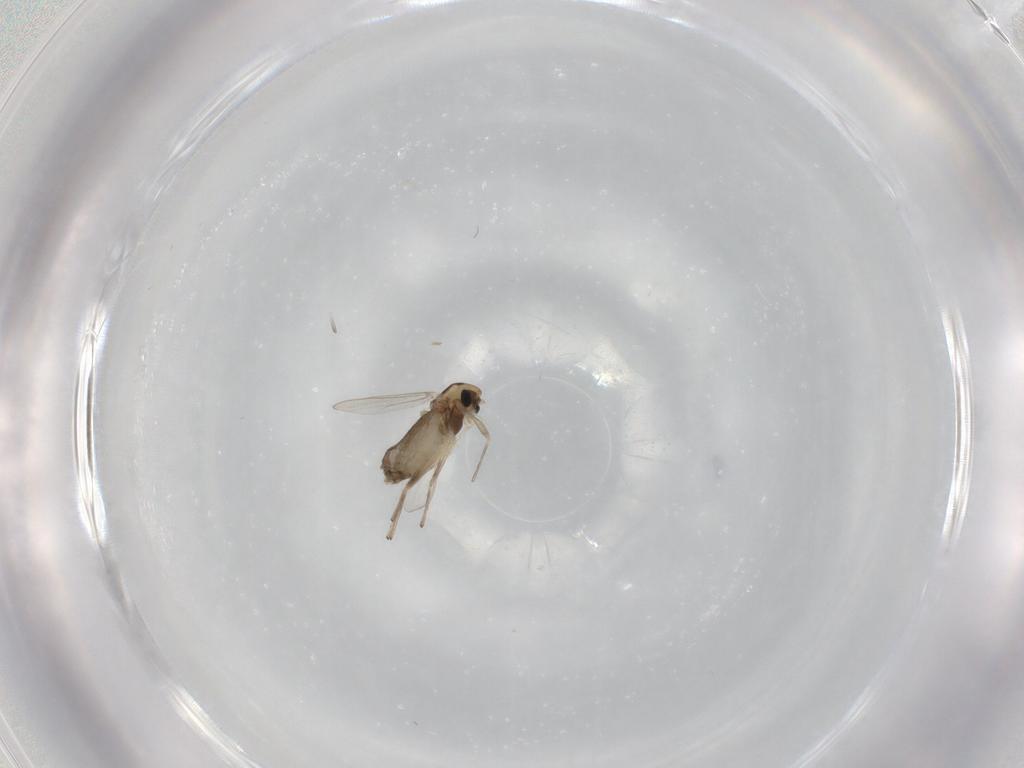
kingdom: Animalia
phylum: Arthropoda
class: Insecta
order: Diptera
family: Chironomidae
